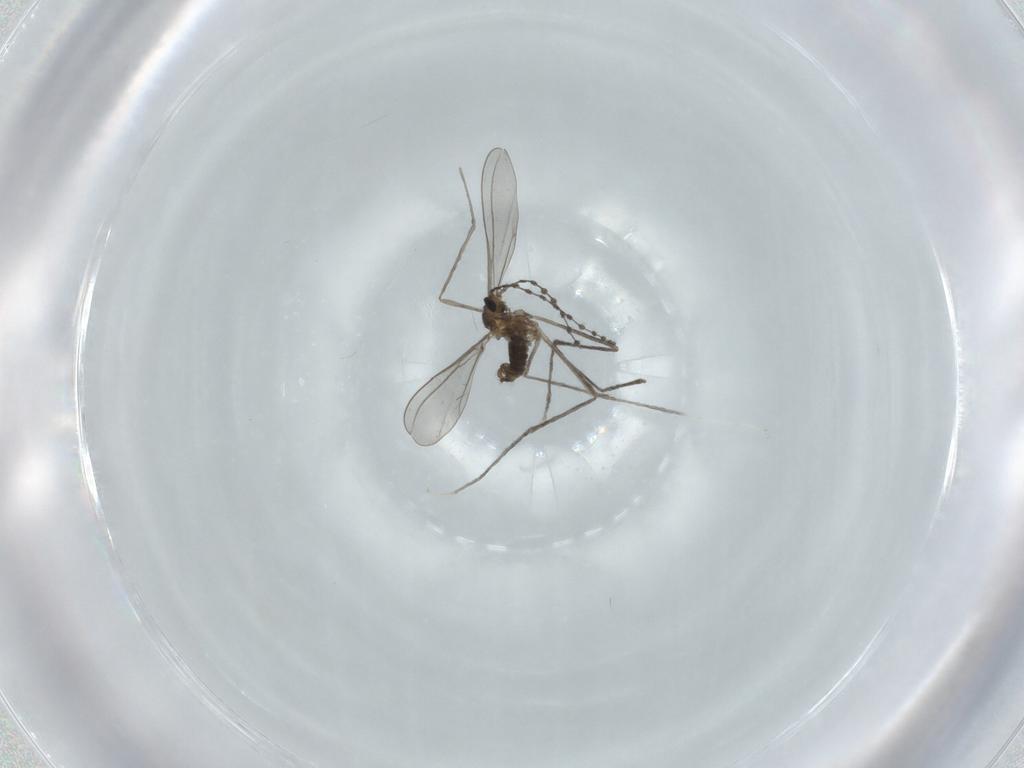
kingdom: Animalia
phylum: Arthropoda
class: Insecta
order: Diptera
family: Cecidomyiidae
